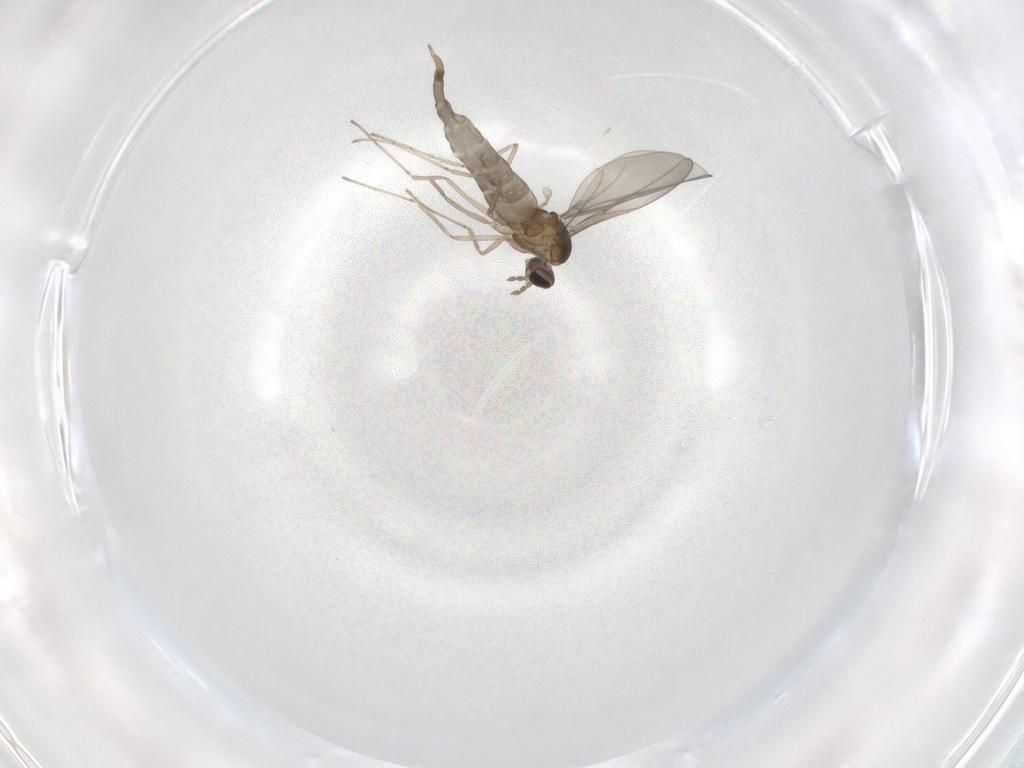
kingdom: Animalia
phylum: Arthropoda
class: Insecta
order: Diptera
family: Cecidomyiidae
